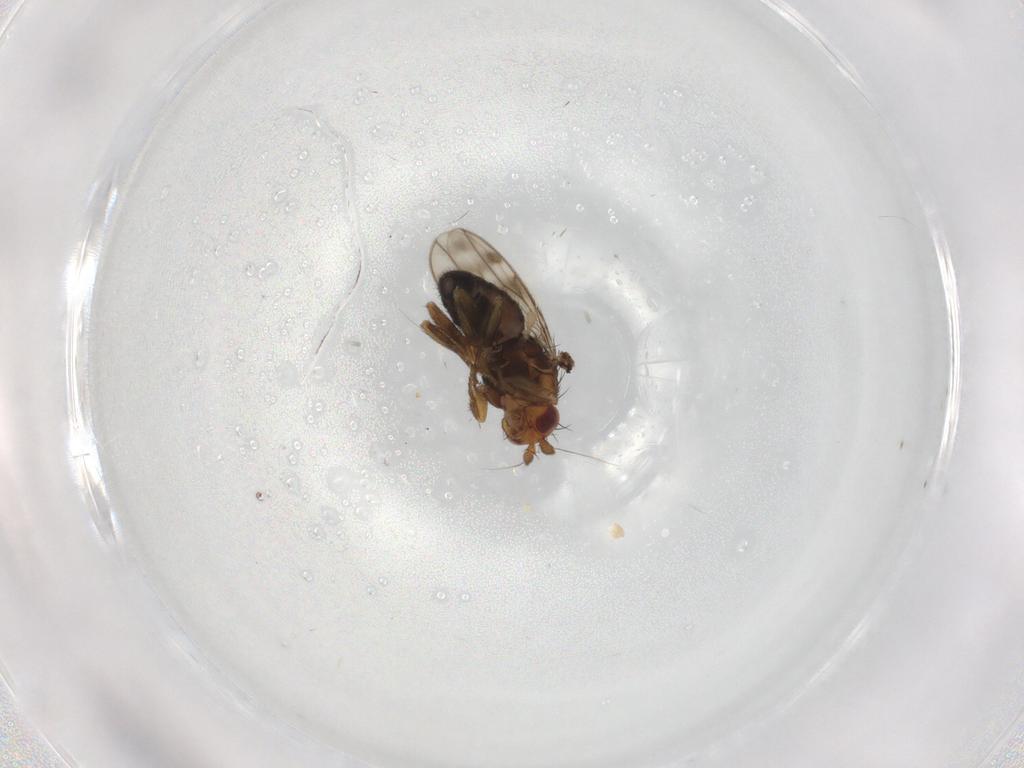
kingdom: Animalia
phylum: Arthropoda
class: Insecta
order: Diptera
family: Sphaeroceridae
